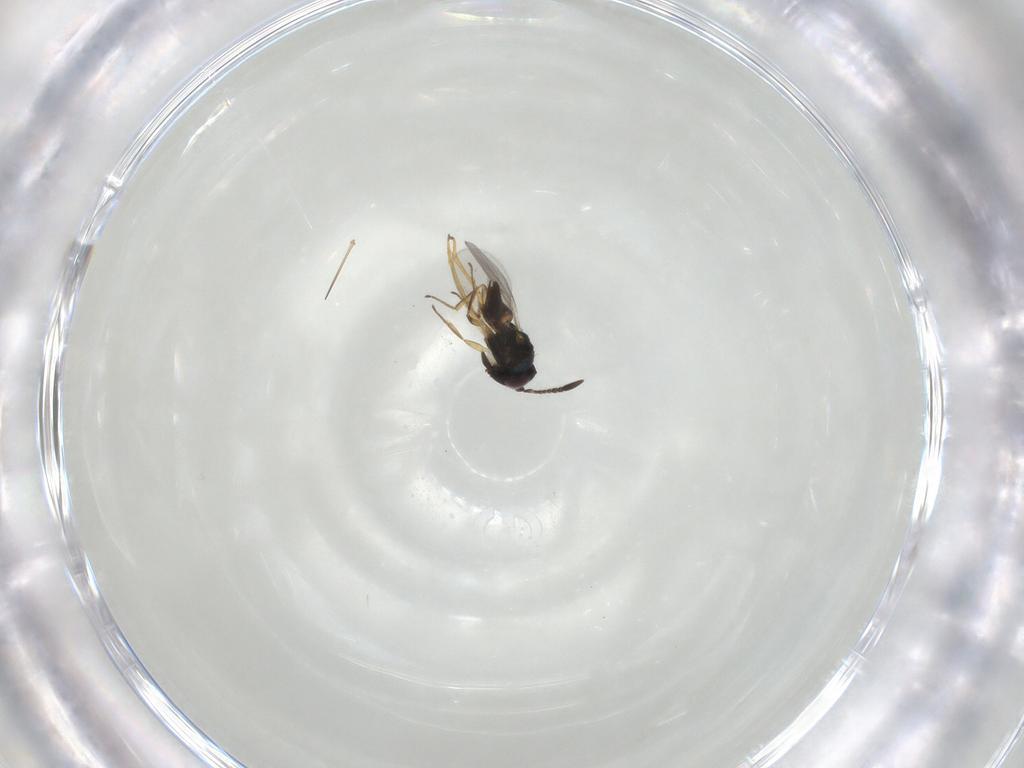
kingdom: Animalia
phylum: Arthropoda
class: Insecta
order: Hymenoptera
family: Encyrtidae
